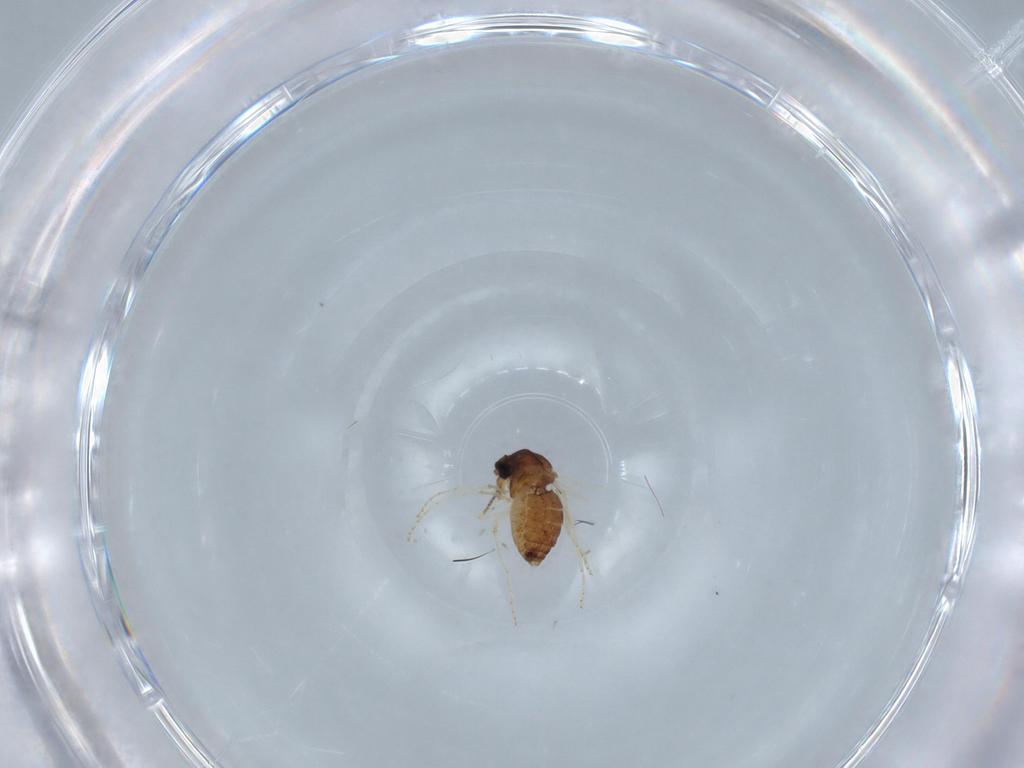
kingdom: Animalia
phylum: Arthropoda
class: Insecta
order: Diptera
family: Ceratopogonidae
